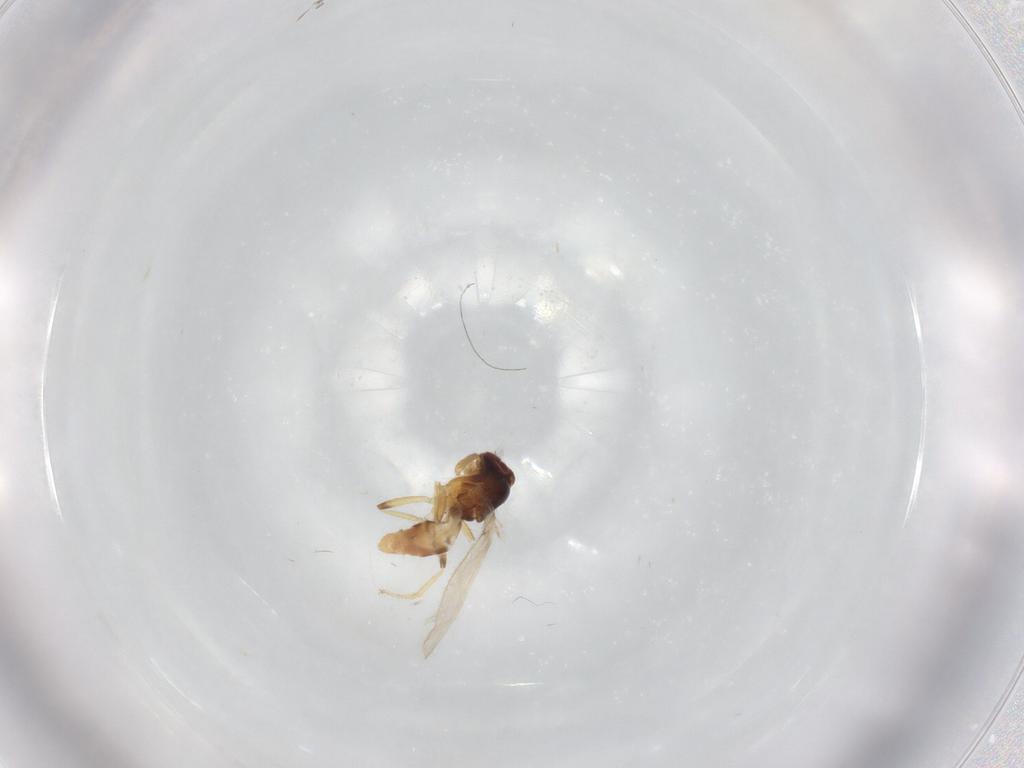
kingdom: Animalia
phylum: Arthropoda
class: Insecta
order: Diptera
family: Periscelididae
